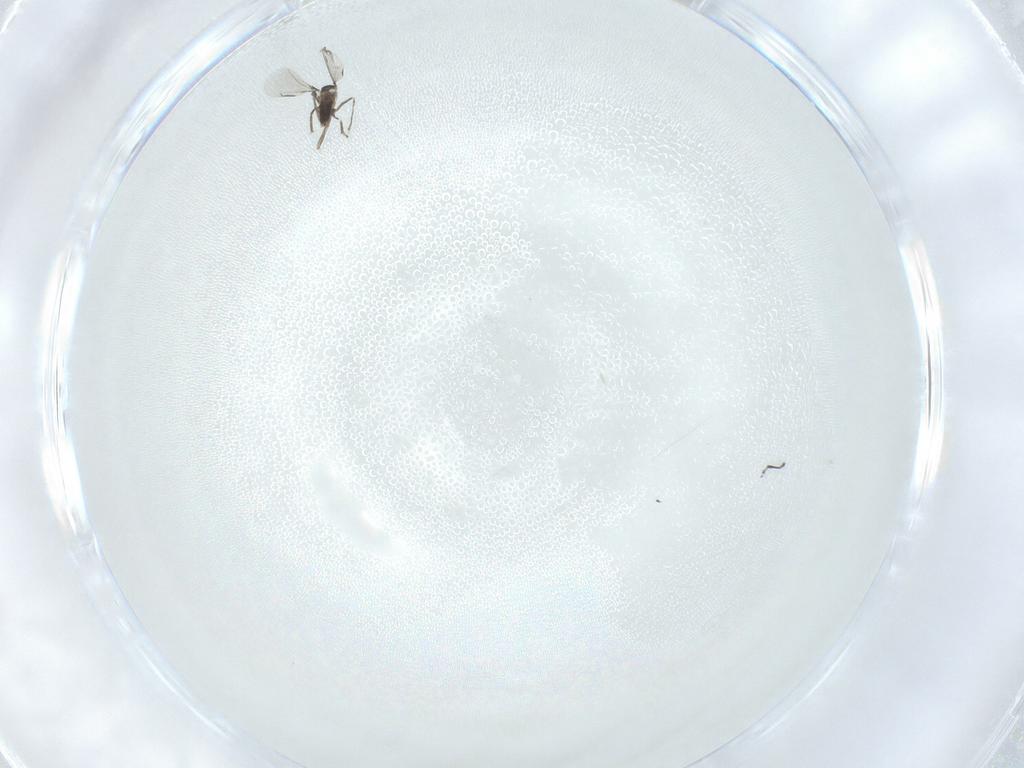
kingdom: Animalia
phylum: Arthropoda
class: Insecta
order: Diptera
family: Cecidomyiidae
